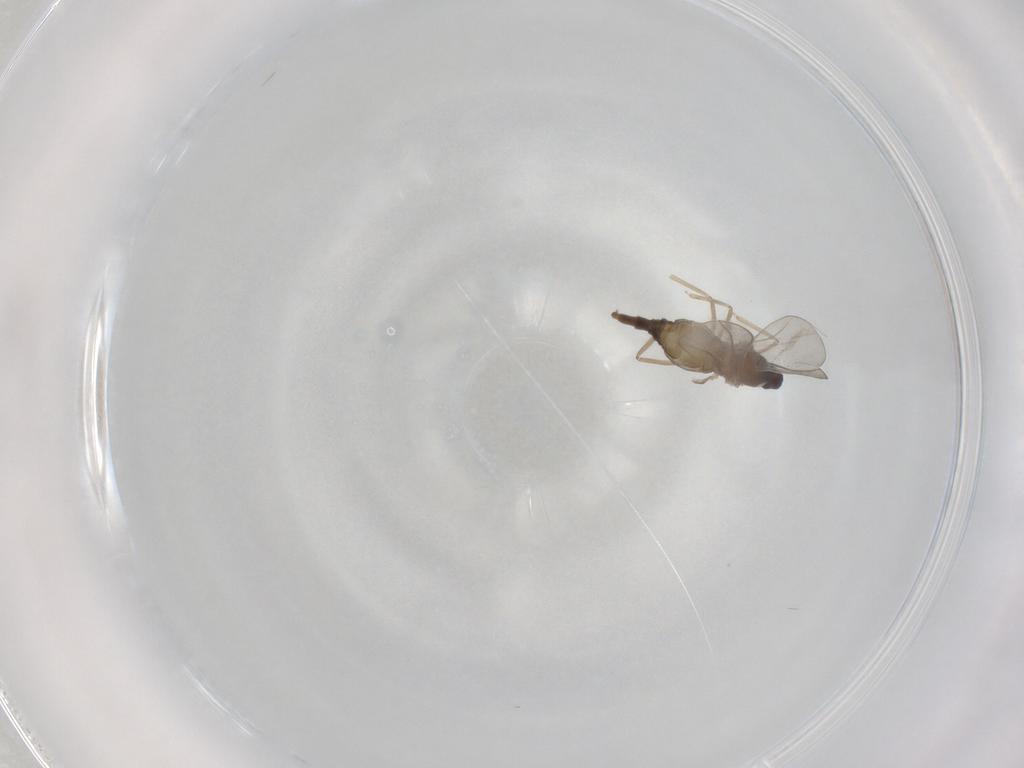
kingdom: Animalia
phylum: Arthropoda
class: Insecta
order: Diptera
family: Cecidomyiidae
